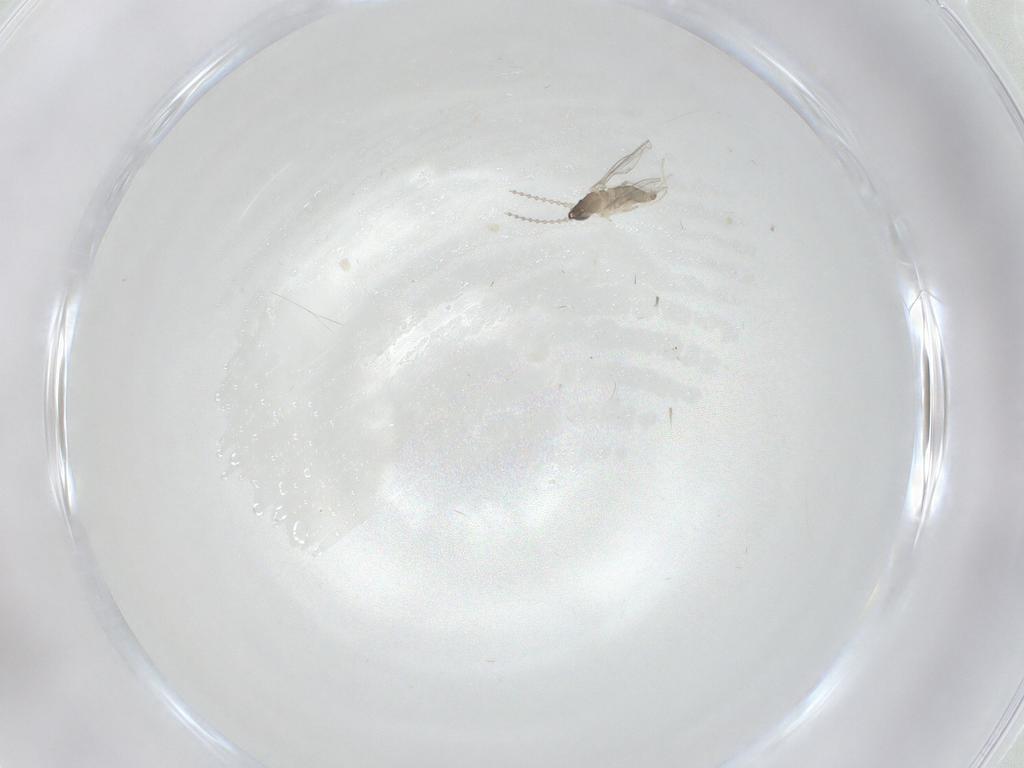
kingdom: Animalia
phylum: Arthropoda
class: Insecta
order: Diptera
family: Cecidomyiidae
